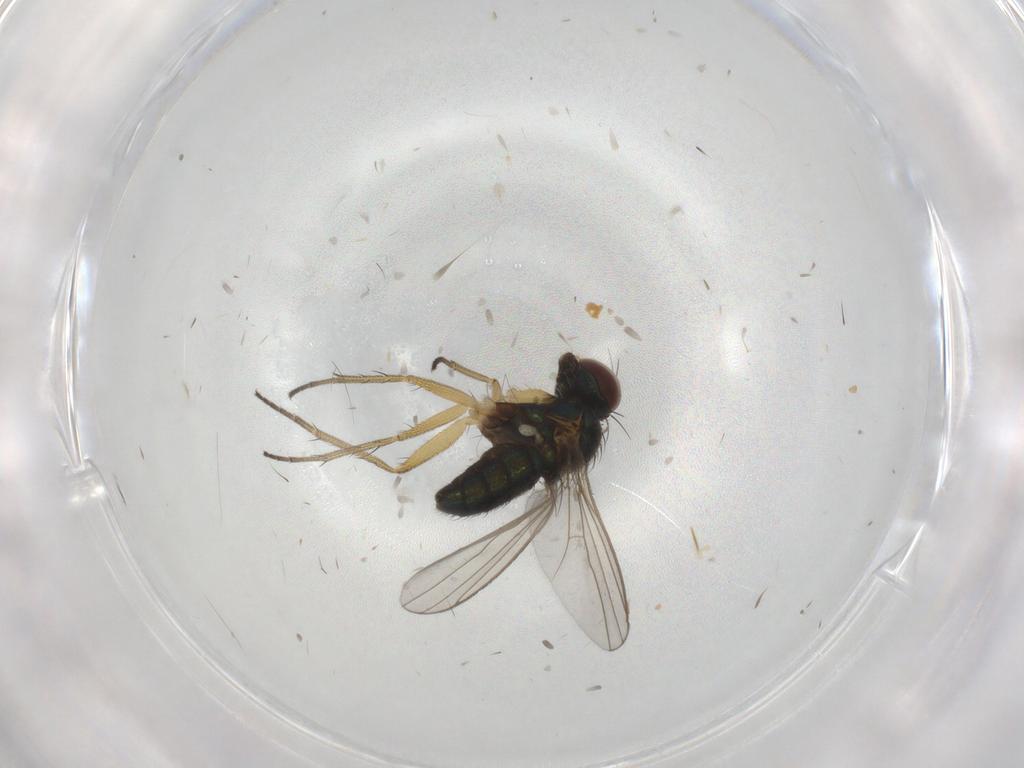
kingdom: Animalia
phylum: Arthropoda
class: Insecta
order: Diptera
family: Ceratopogonidae
